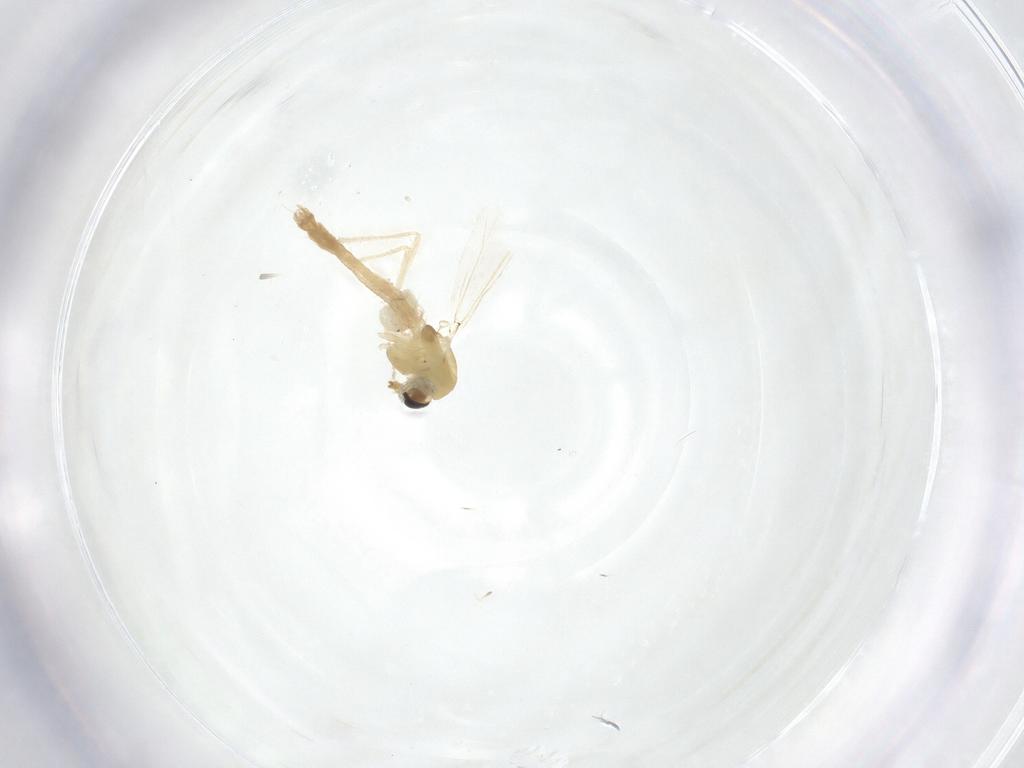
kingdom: Animalia
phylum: Arthropoda
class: Insecta
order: Diptera
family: Chironomidae
